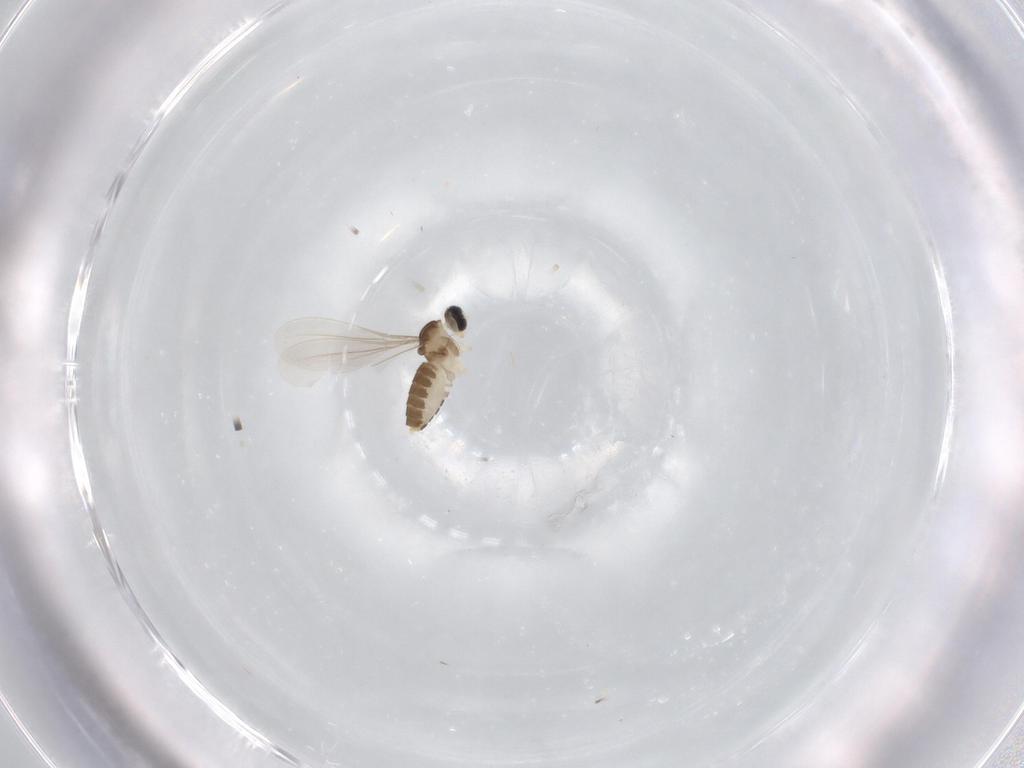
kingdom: Animalia
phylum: Arthropoda
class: Insecta
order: Diptera
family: Cecidomyiidae
